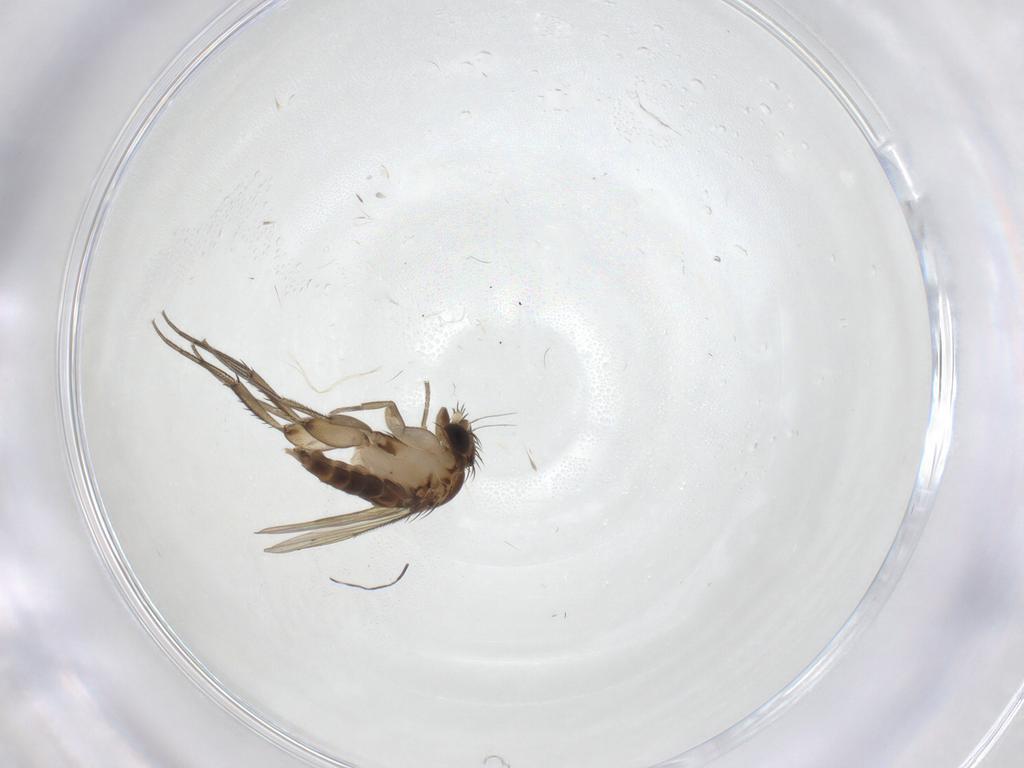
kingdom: Animalia
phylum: Arthropoda
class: Insecta
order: Diptera
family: Phoridae
